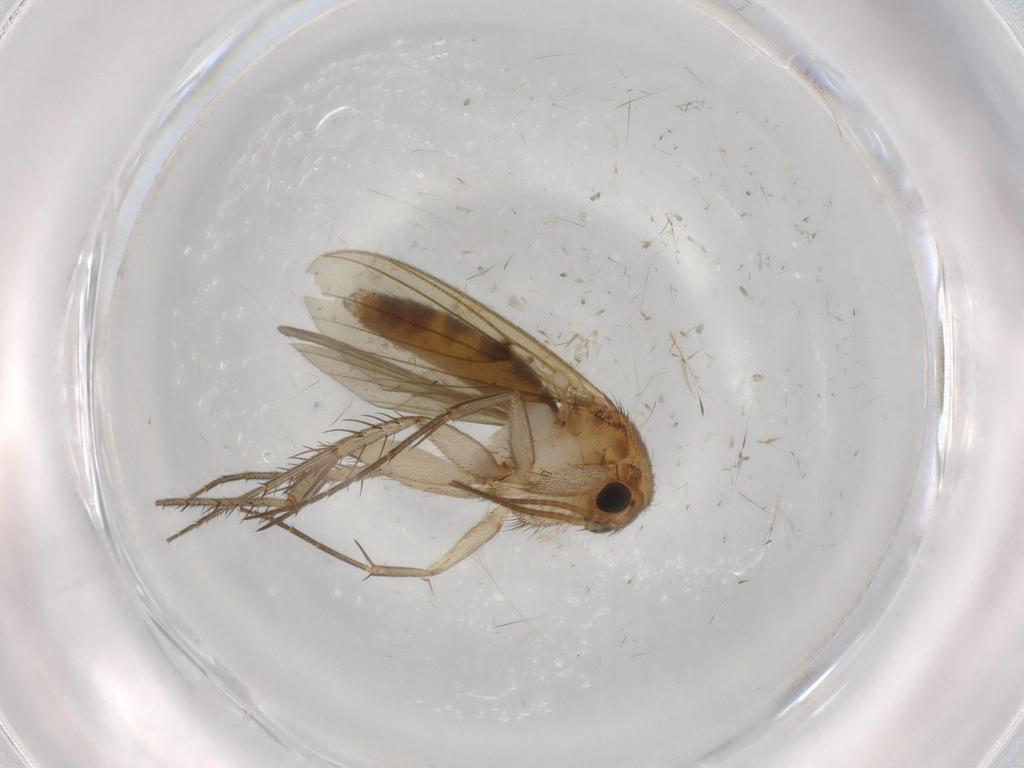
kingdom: Animalia
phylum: Arthropoda
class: Insecta
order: Diptera
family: Mycetophilidae
